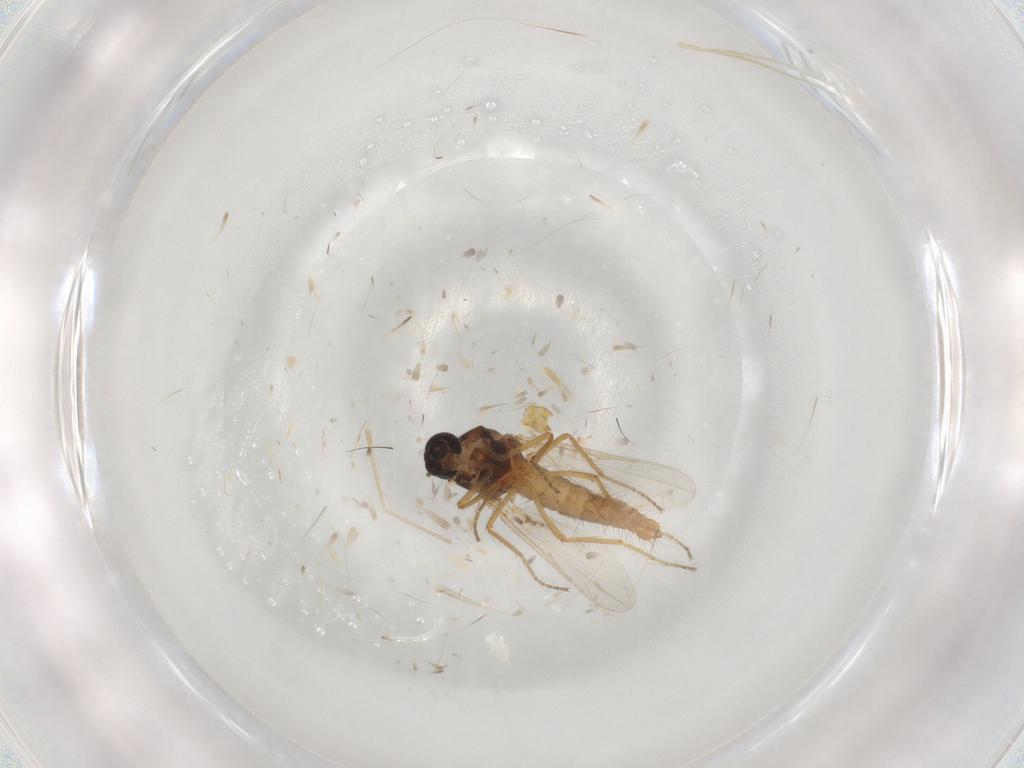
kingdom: Animalia
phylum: Arthropoda
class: Insecta
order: Diptera
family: Ceratopogonidae
